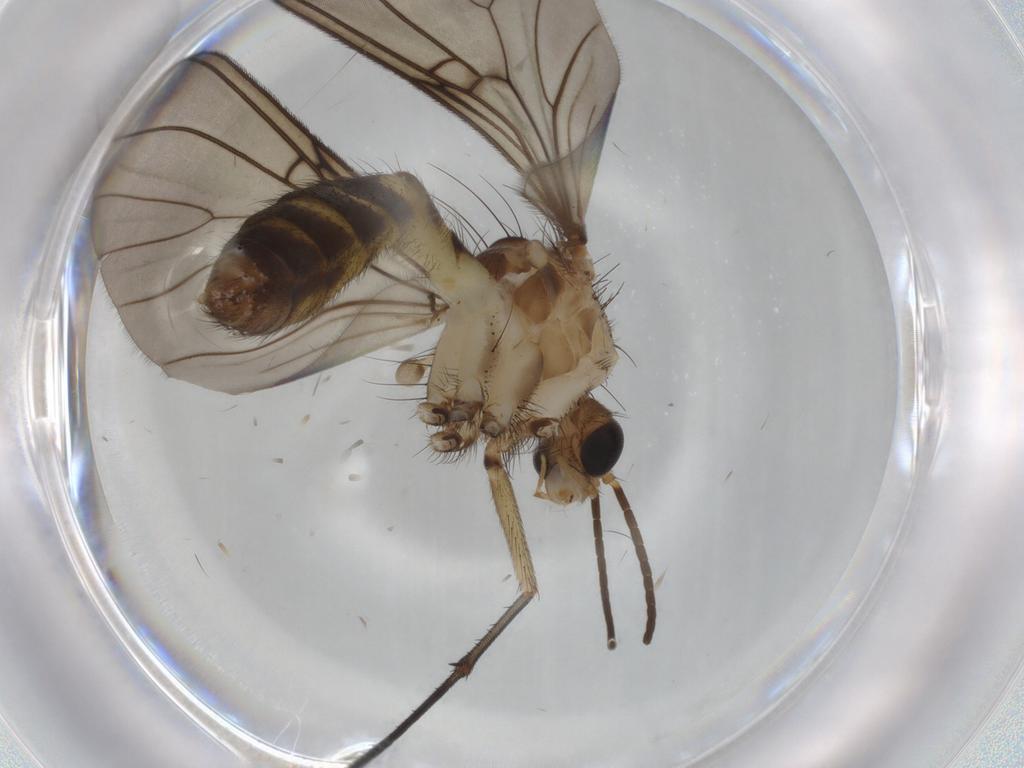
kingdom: Animalia
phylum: Arthropoda
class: Insecta
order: Diptera
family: Mycetophilidae
